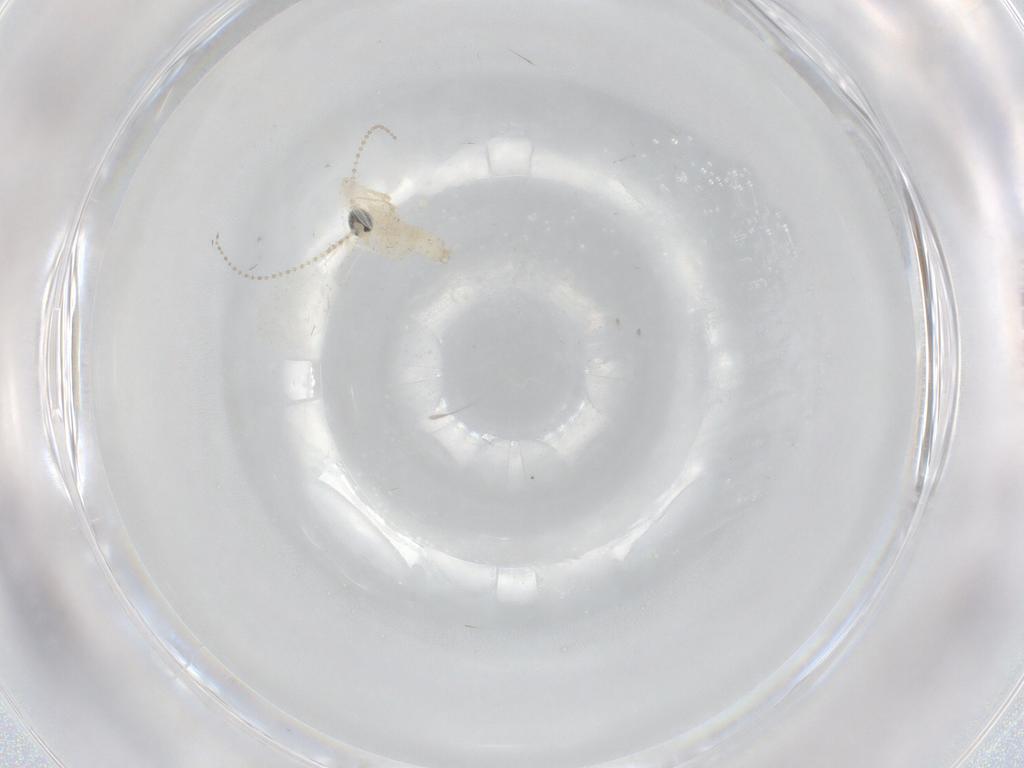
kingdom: Animalia
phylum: Arthropoda
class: Insecta
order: Diptera
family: Cecidomyiidae
